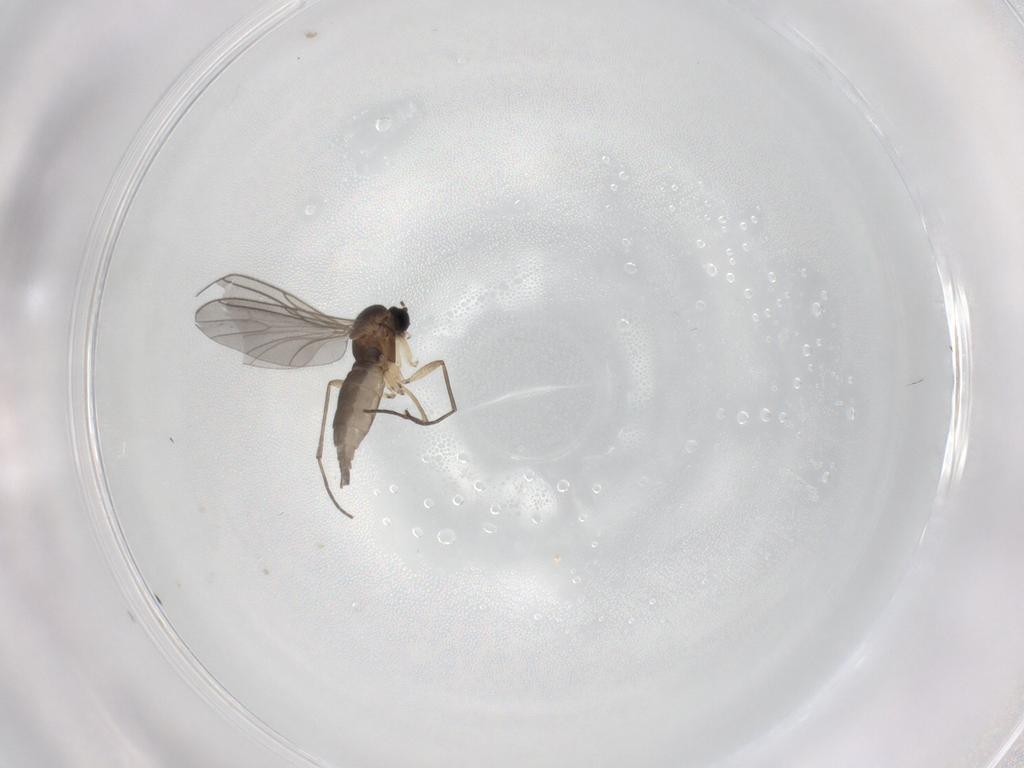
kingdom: Animalia
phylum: Arthropoda
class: Insecta
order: Diptera
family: Sciaridae
